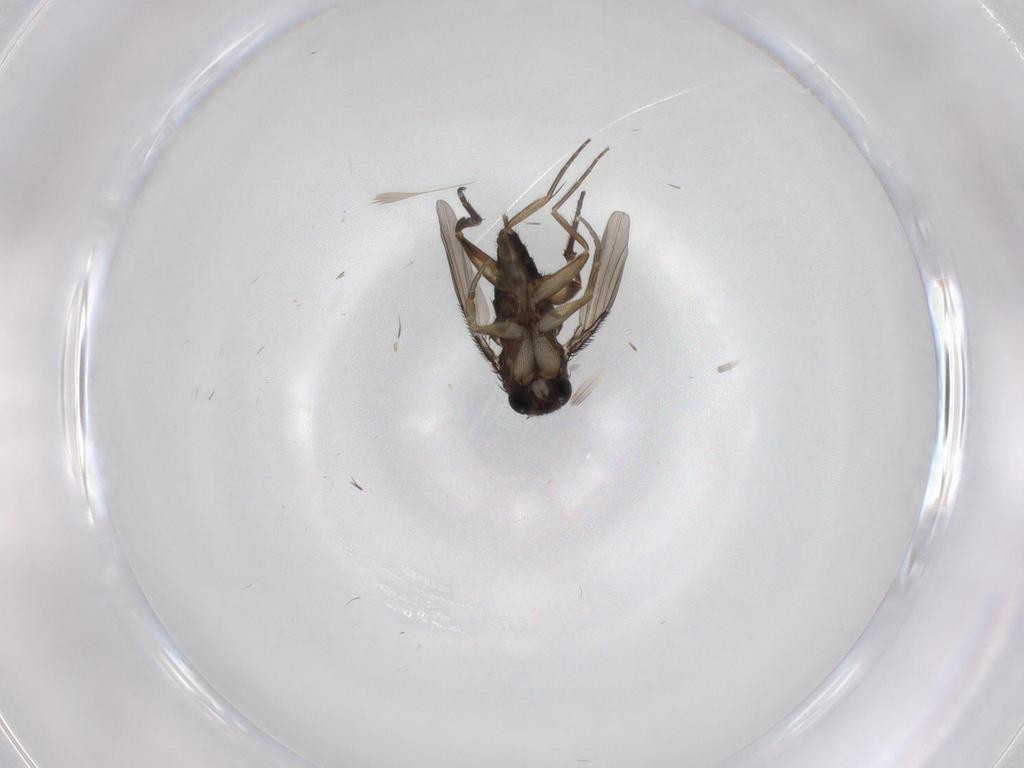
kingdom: Animalia
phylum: Arthropoda
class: Insecta
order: Diptera
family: Phoridae
